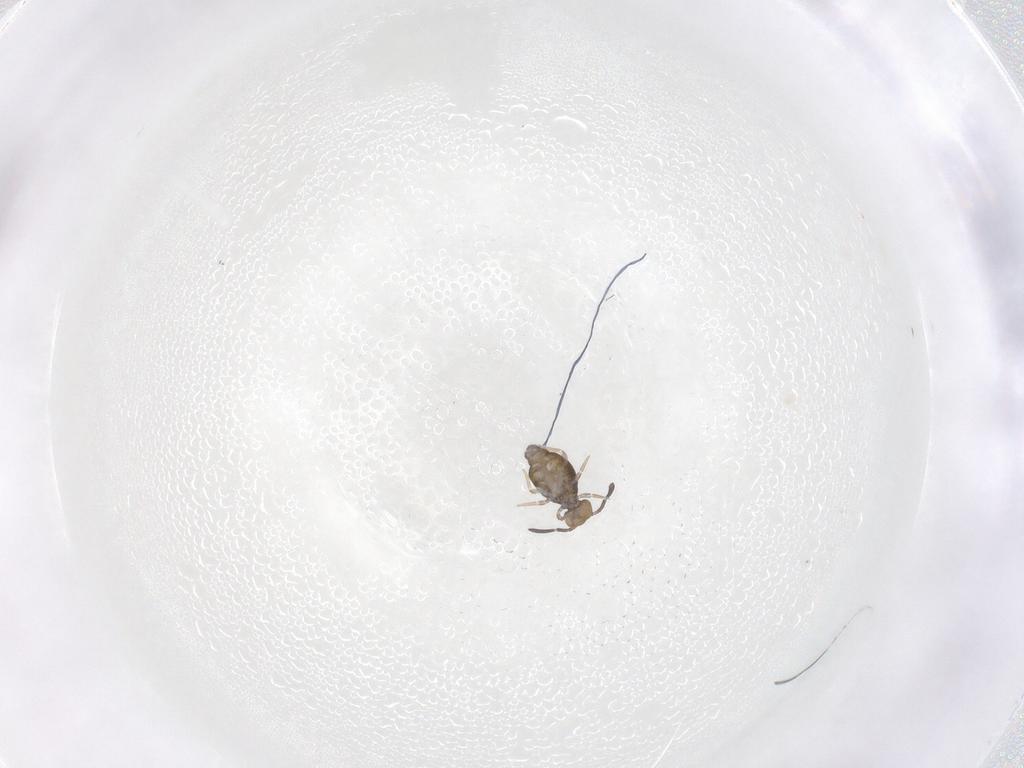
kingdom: Animalia
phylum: Arthropoda
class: Collembola
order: Symphypleona
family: Katiannidae
